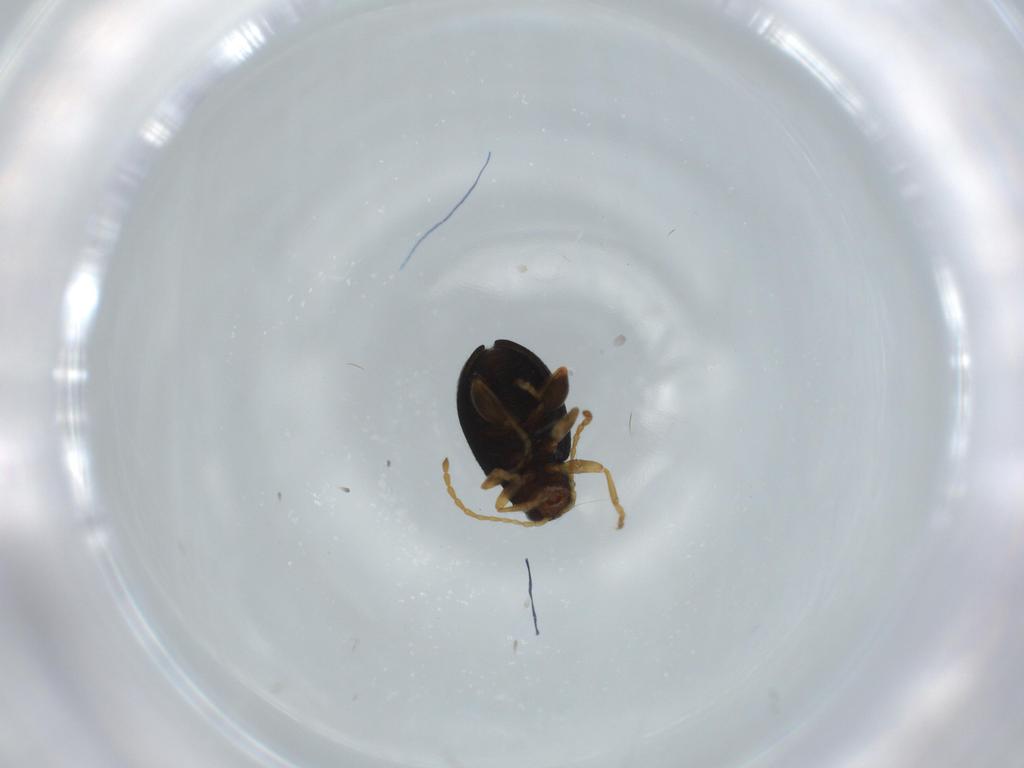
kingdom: Animalia
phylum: Arthropoda
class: Insecta
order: Coleoptera
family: Chrysomelidae
